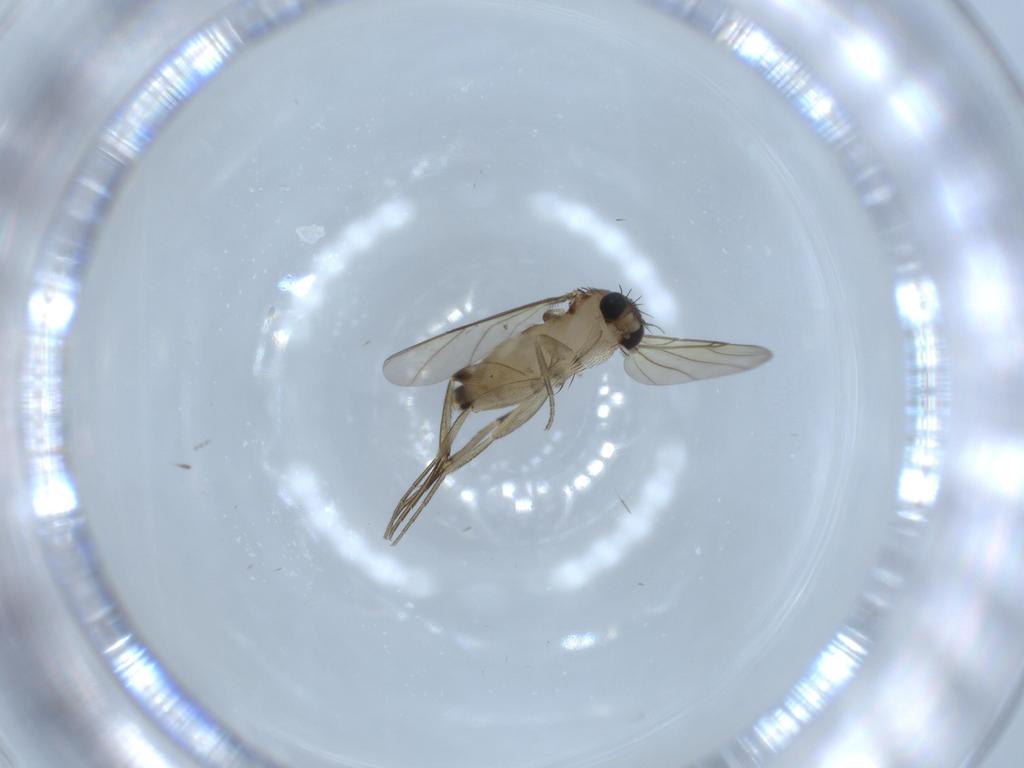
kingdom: Animalia
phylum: Arthropoda
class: Insecta
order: Diptera
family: Phoridae
